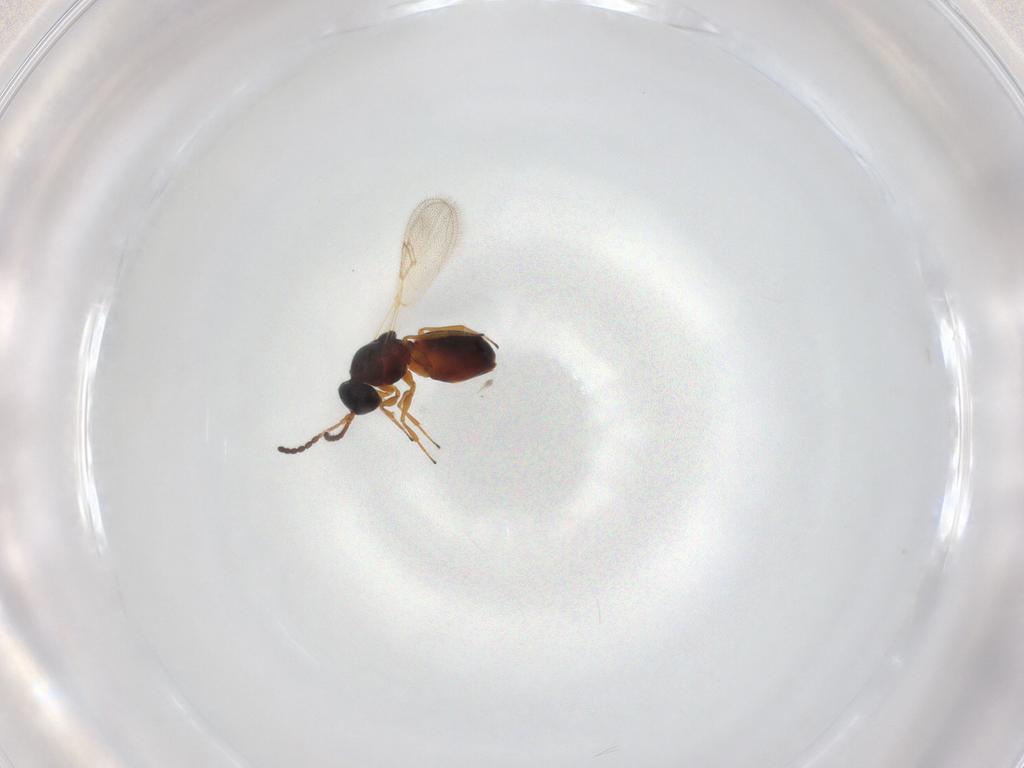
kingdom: Animalia
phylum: Arthropoda
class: Insecta
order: Hymenoptera
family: Figitidae
